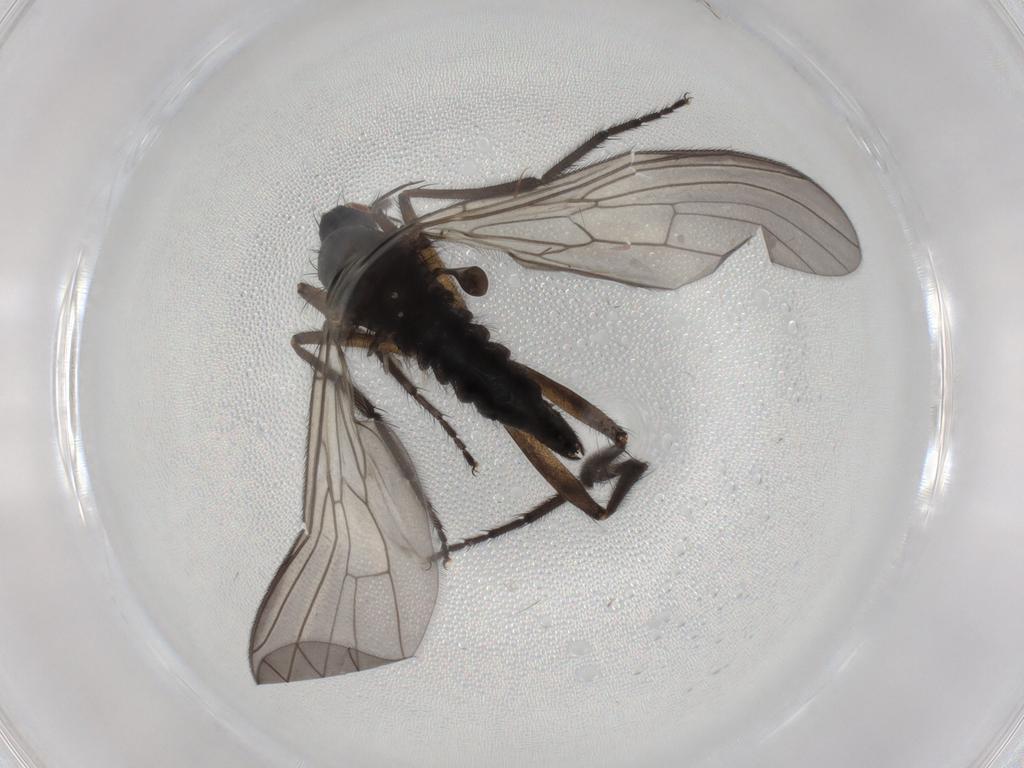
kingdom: Animalia
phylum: Arthropoda
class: Insecta
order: Diptera
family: Empididae
